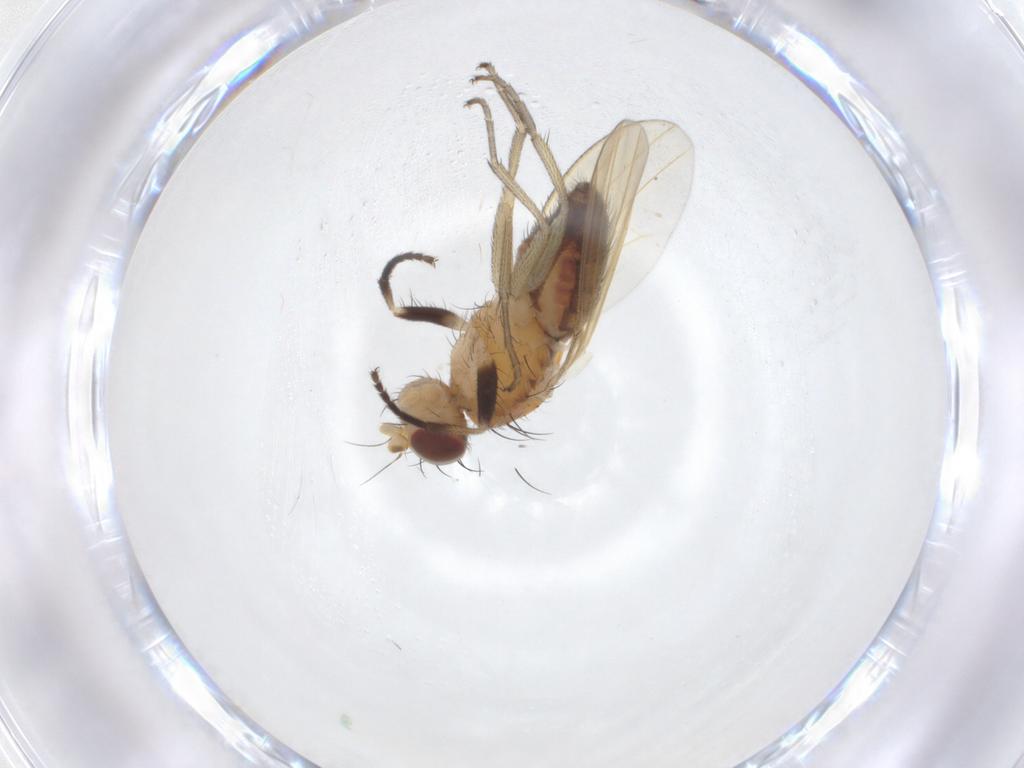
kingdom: Animalia
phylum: Arthropoda
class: Insecta
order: Diptera
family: Heleomyzidae
